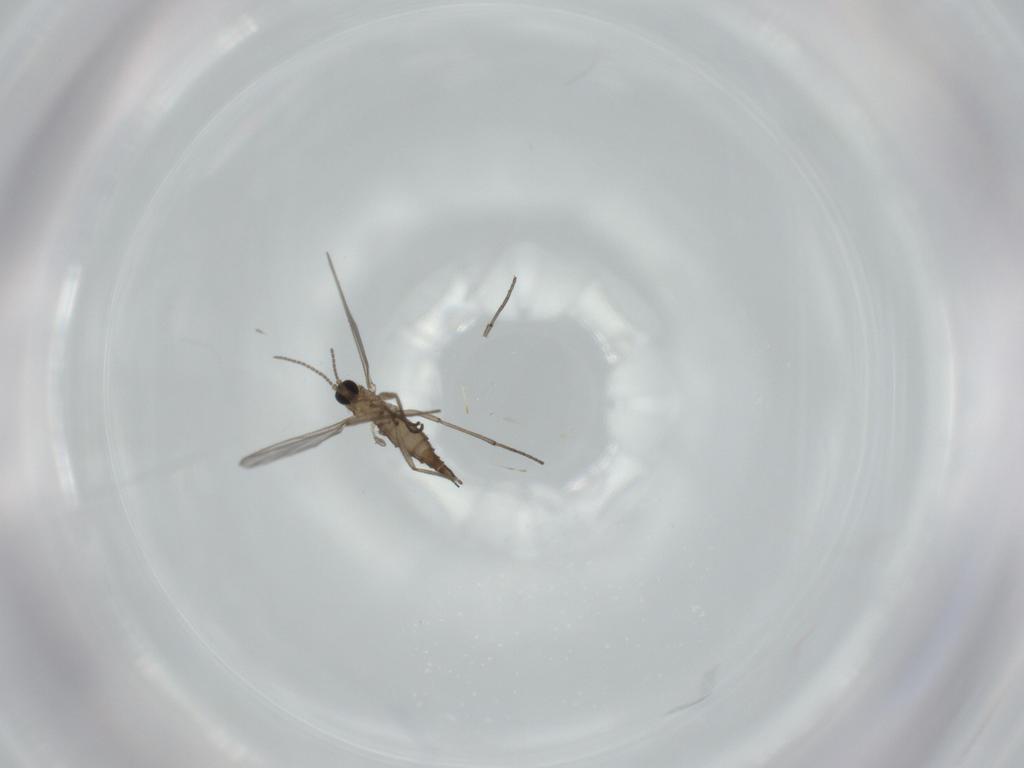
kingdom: Animalia
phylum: Arthropoda
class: Insecta
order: Diptera
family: Sciaridae
